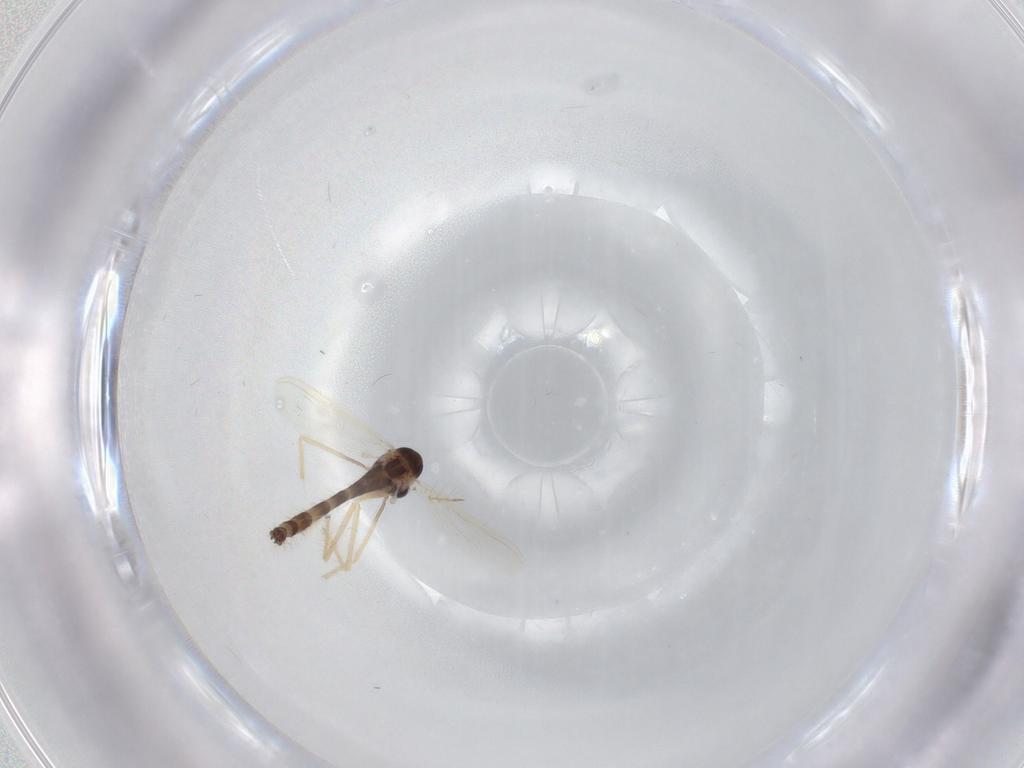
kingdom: Animalia
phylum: Arthropoda
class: Insecta
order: Diptera
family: Chironomidae
